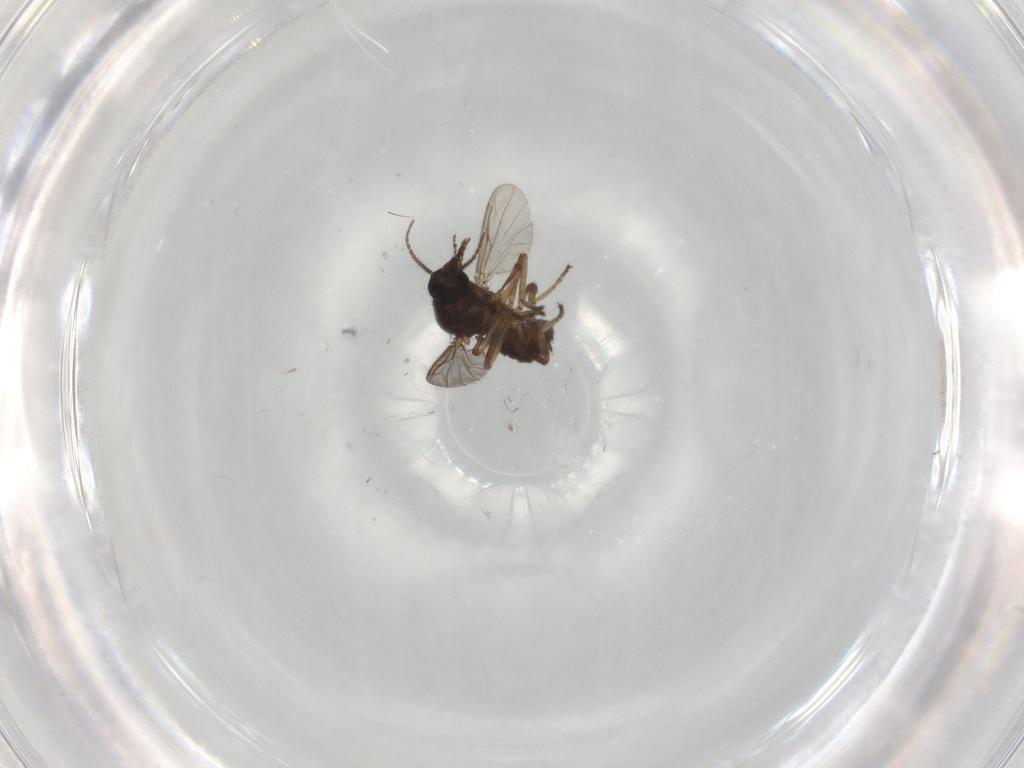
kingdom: Animalia
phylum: Arthropoda
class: Insecta
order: Diptera
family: Ceratopogonidae
